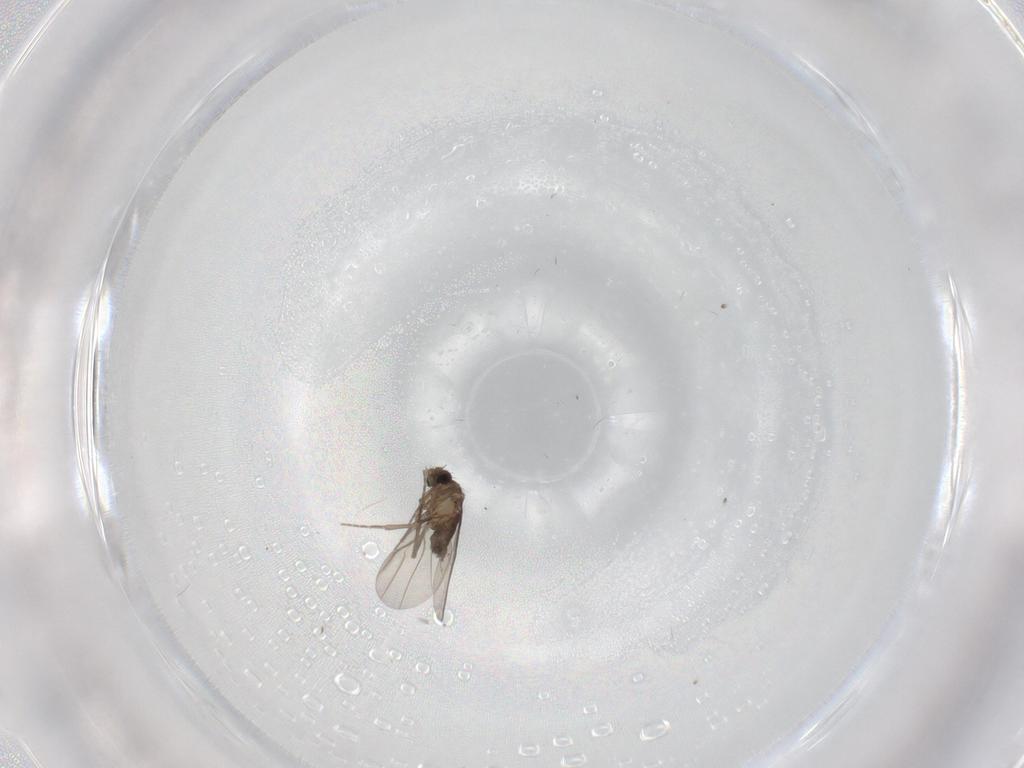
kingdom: Animalia
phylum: Arthropoda
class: Insecta
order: Diptera
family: Phoridae
